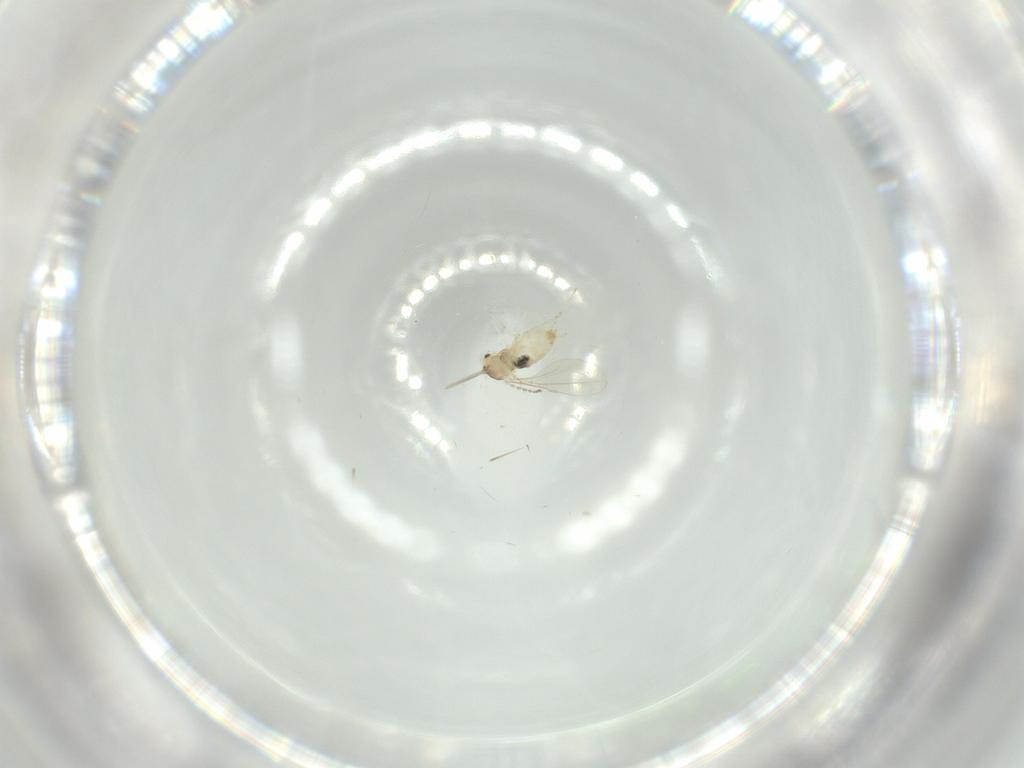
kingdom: Animalia
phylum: Arthropoda
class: Insecta
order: Diptera
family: Cecidomyiidae
